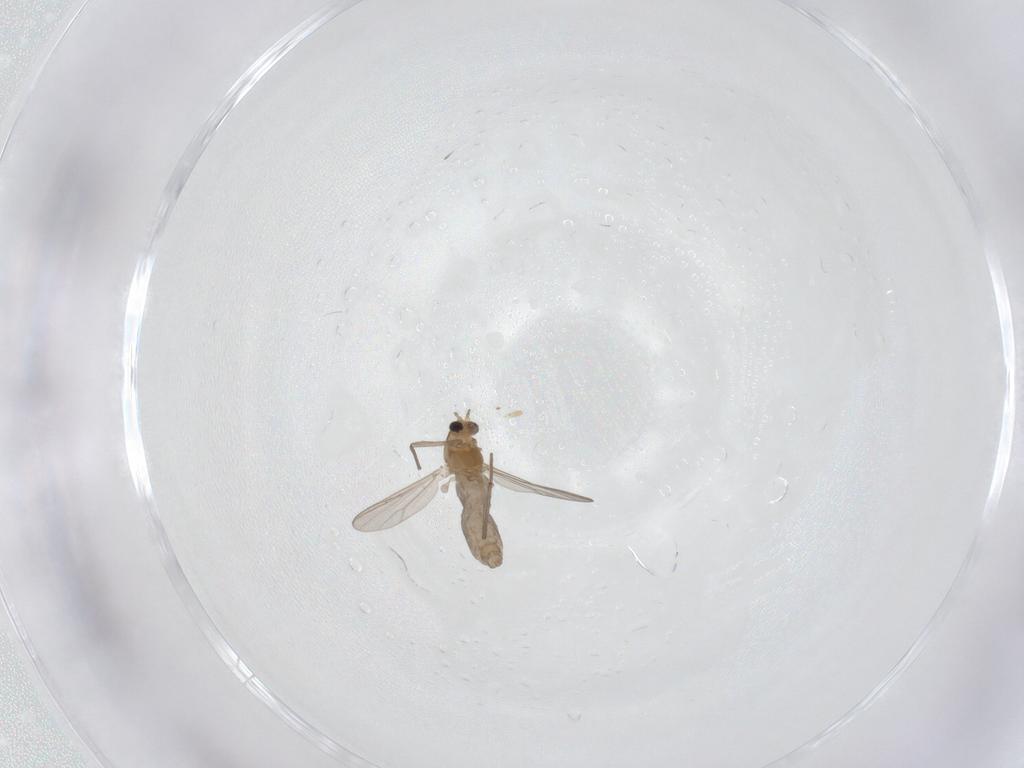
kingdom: Animalia
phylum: Arthropoda
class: Insecta
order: Diptera
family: Chironomidae
